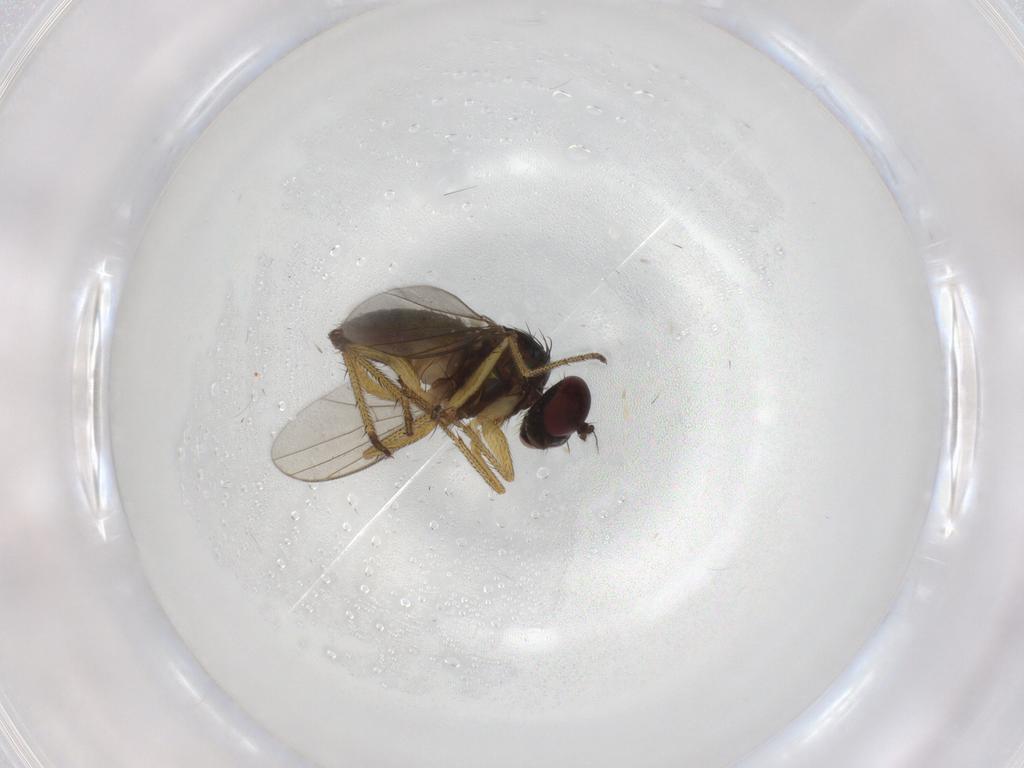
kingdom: Animalia
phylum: Arthropoda
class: Insecta
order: Diptera
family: Dolichopodidae
